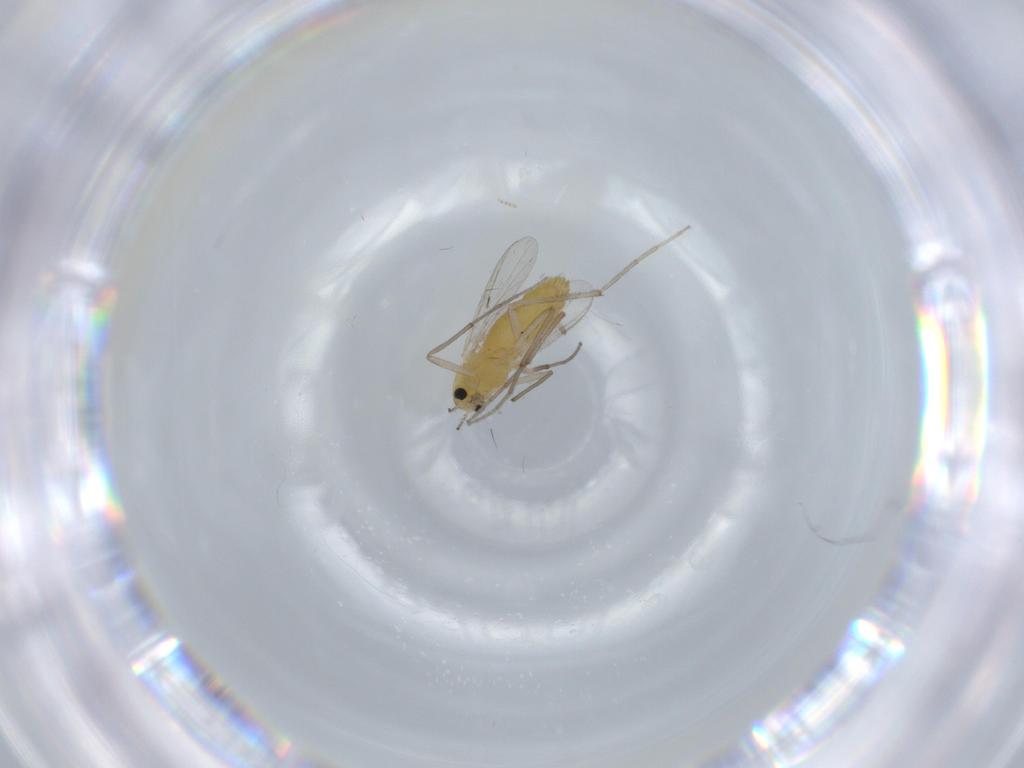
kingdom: Animalia
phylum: Arthropoda
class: Insecta
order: Diptera
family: Chironomidae
